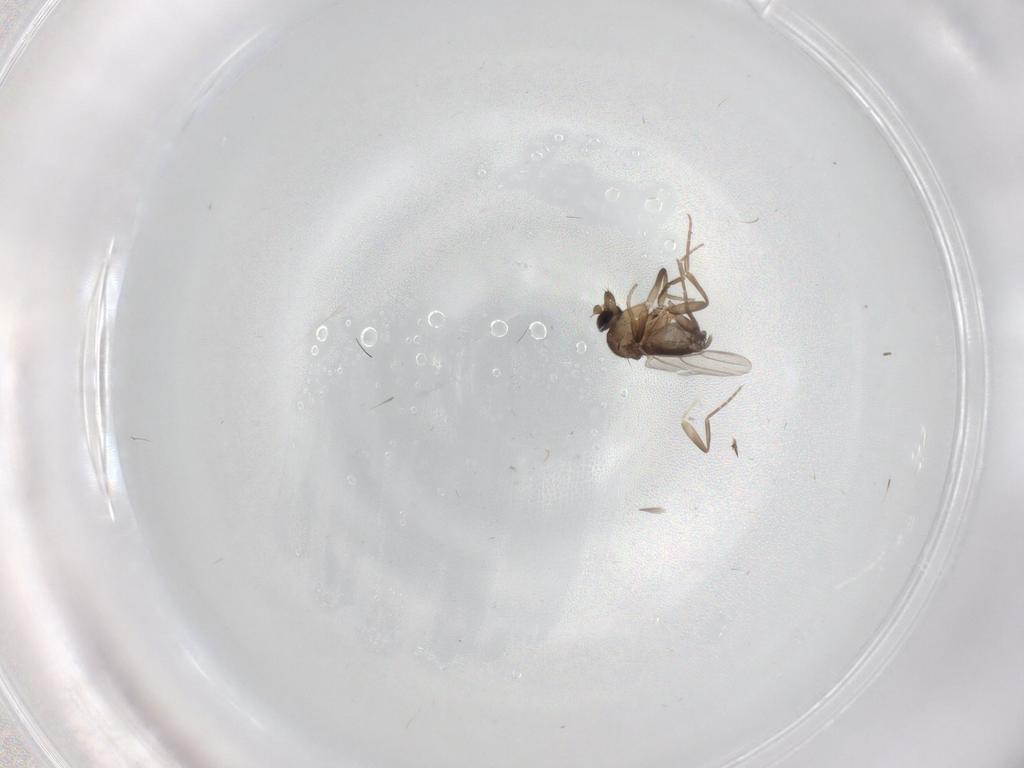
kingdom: Animalia
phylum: Arthropoda
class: Insecta
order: Diptera
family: Phoridae
